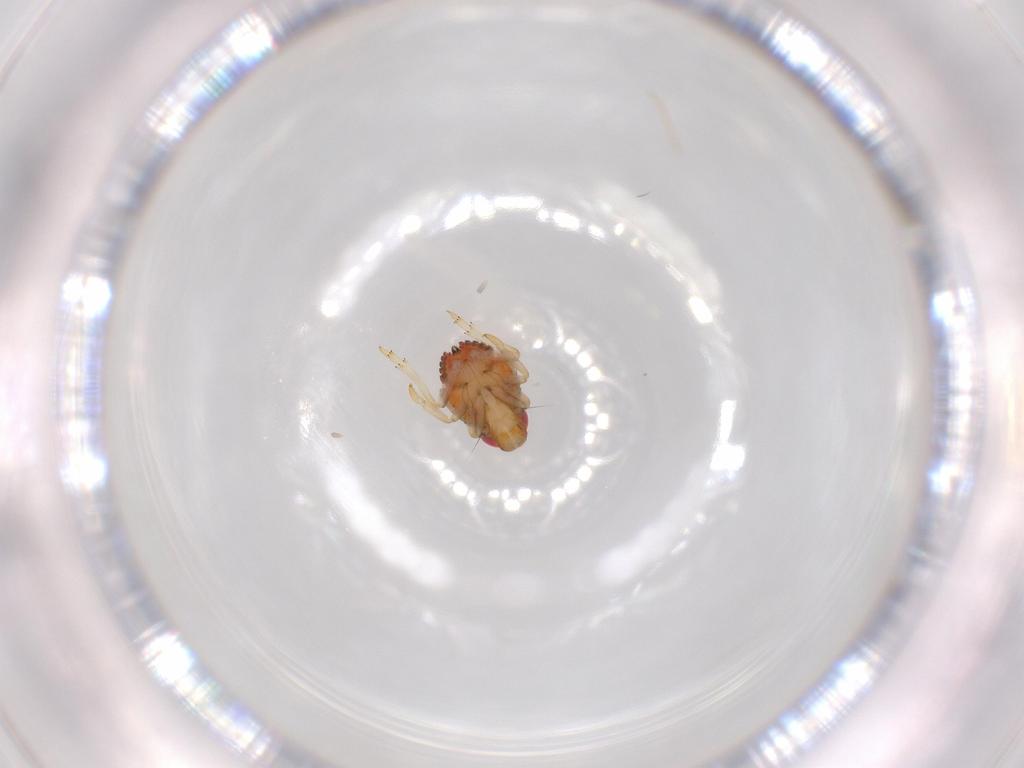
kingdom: Animalia
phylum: Arthropoda
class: Insecta
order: Hemiptera
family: Issidae
